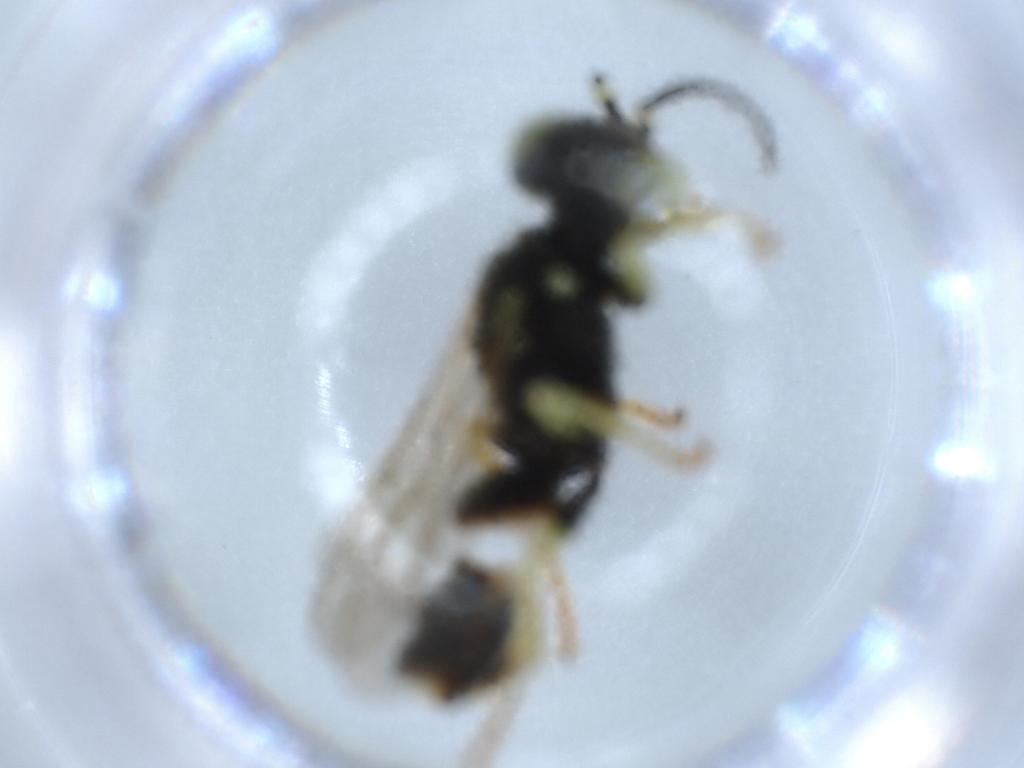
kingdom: Animalia
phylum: Arthropoda
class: Insecta
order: Hymenoptera
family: Crabronidae
